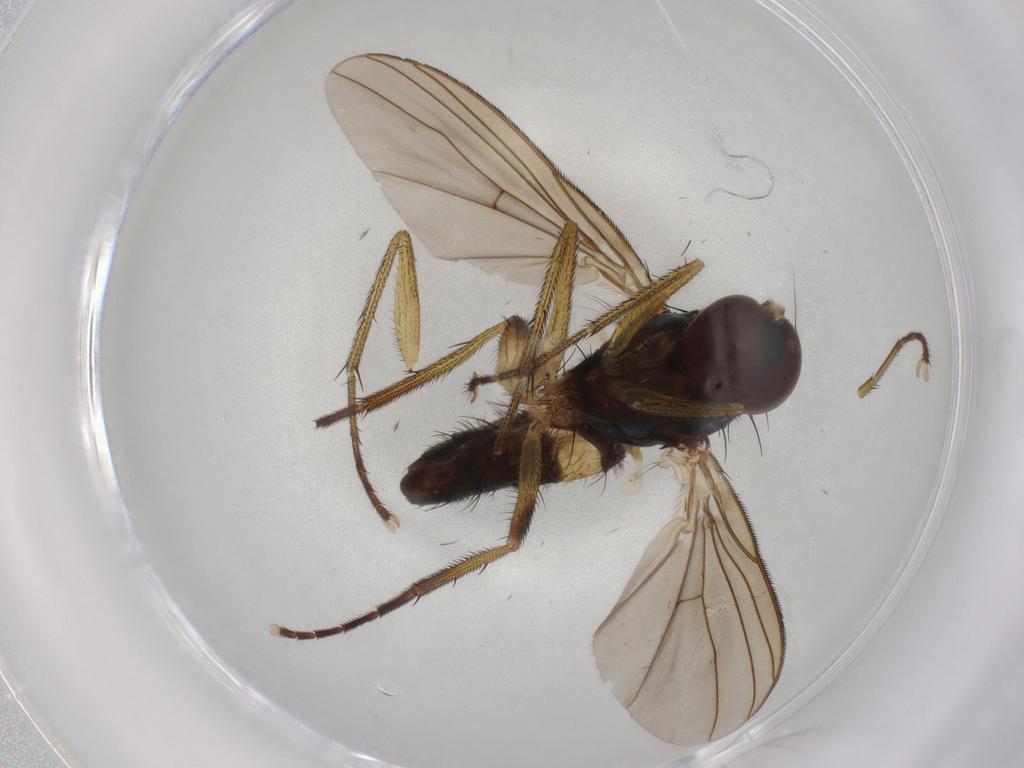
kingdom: Animalia
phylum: Arthropoda
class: Insecta
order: Diptera
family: Dolichopodidae
